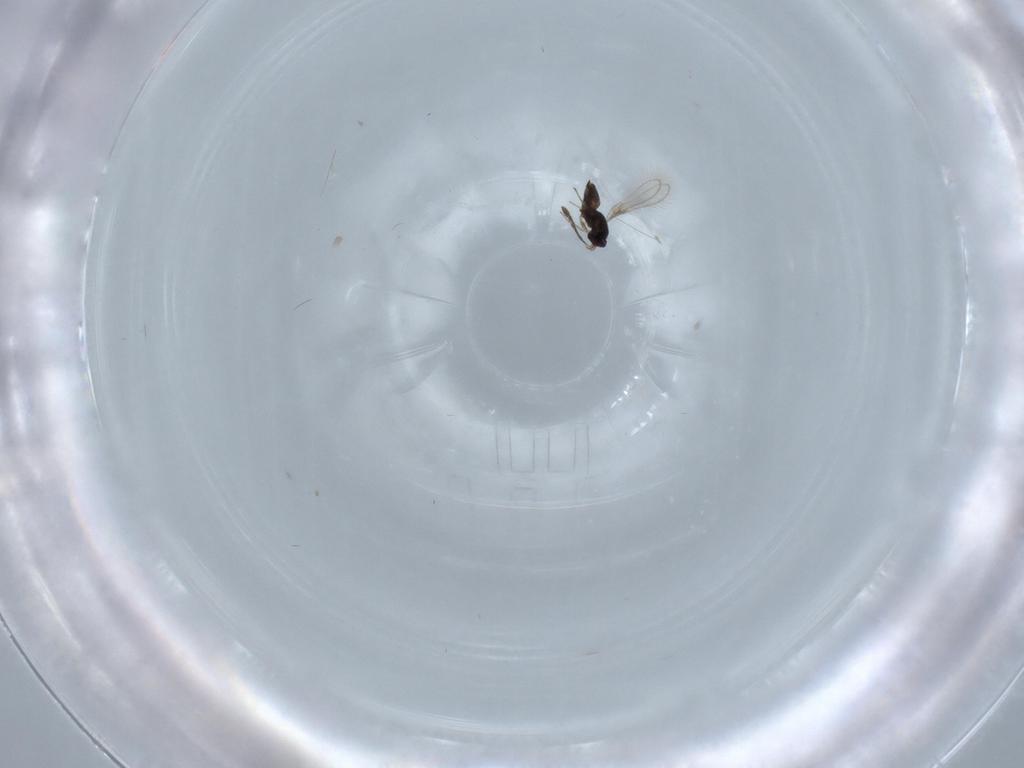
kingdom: Animalia
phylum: Arthropoda
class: Insecta
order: Hymenoptera
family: Mymaridae
